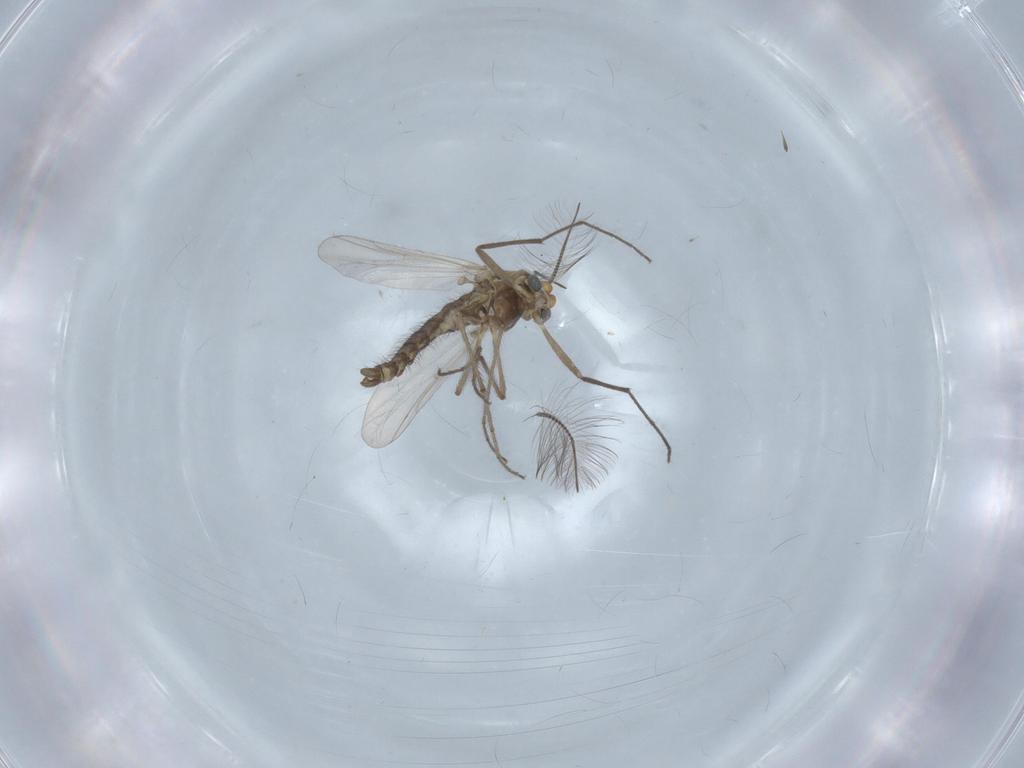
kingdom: Animalia
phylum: Arthropoda
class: Insecta
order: Diptera
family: Chironomidae
